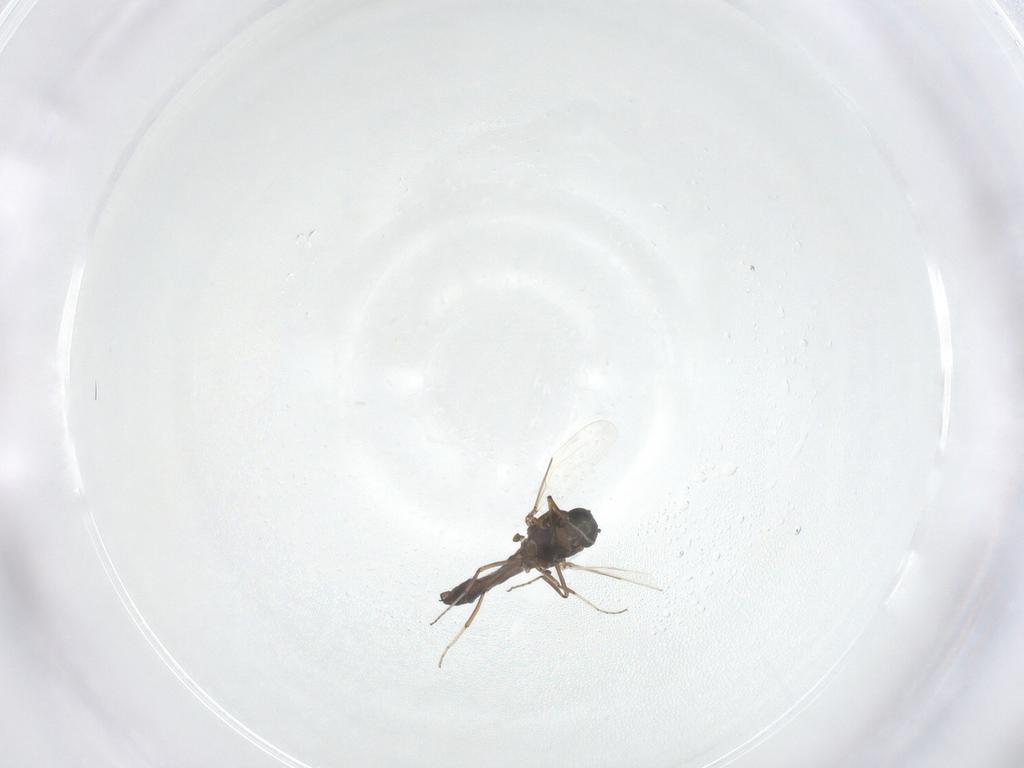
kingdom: Animalia
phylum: Arthropoda
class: Insecta
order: Diptera
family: Ceratopogonidae
